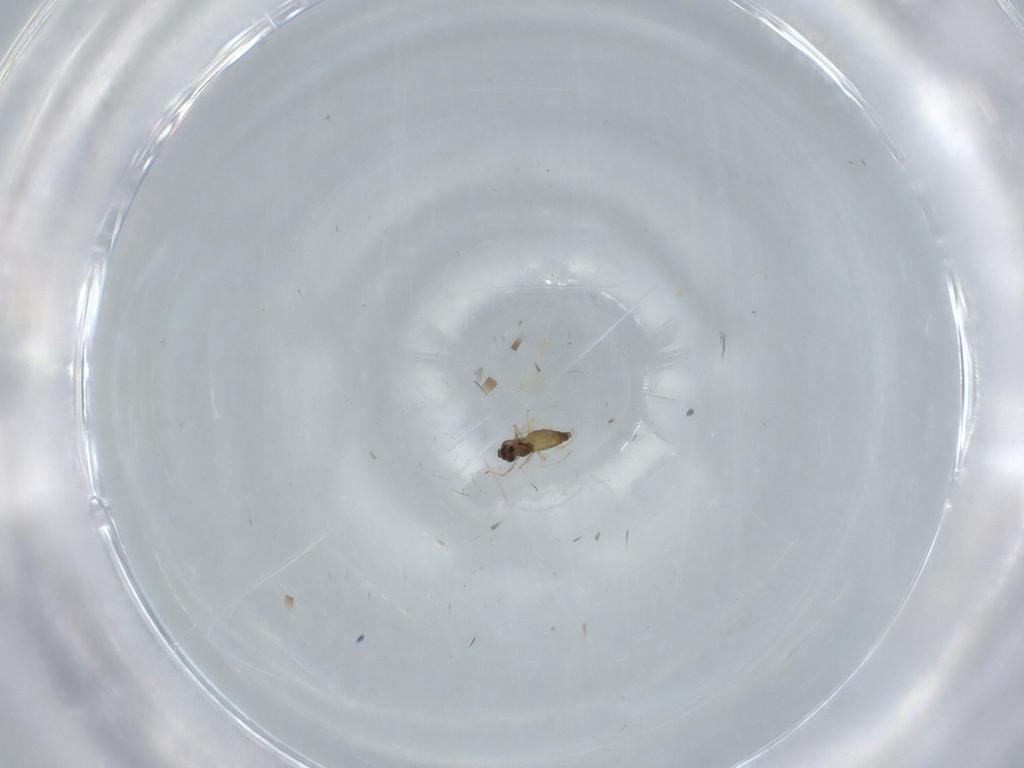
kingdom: Animalia
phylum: Arthropoda
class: Insecta
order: Diptera
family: Chironomidae
